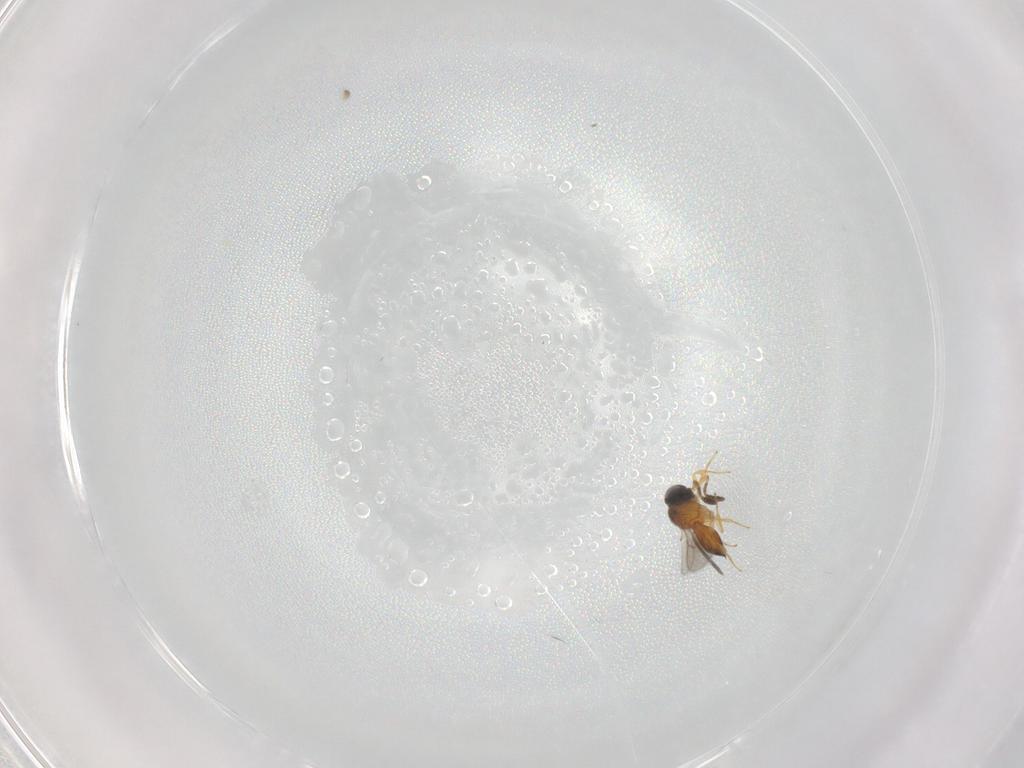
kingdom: Animalia
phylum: Arthropoda
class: Insecta
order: Hymenoptera
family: Scelionidae
